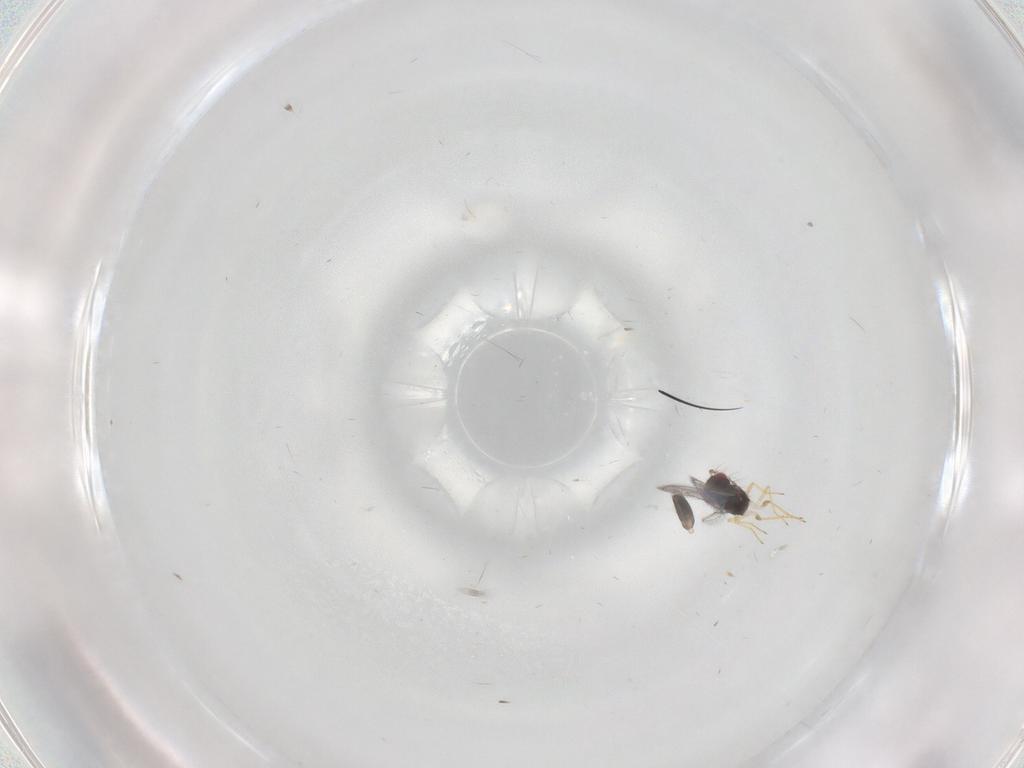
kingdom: Animalia
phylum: Arthropoda
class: Insecta
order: Hymenoptera
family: Eulophidae
